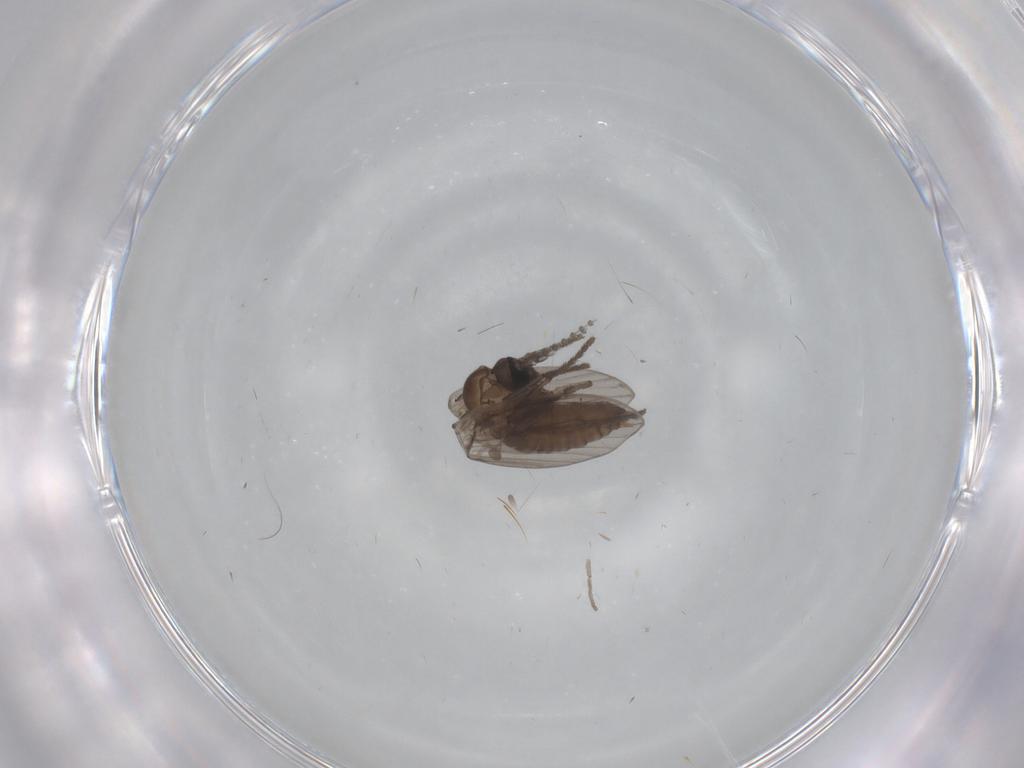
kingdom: Animalia
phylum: Arthropoda
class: Insecta
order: Diptera
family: Psychodidae
